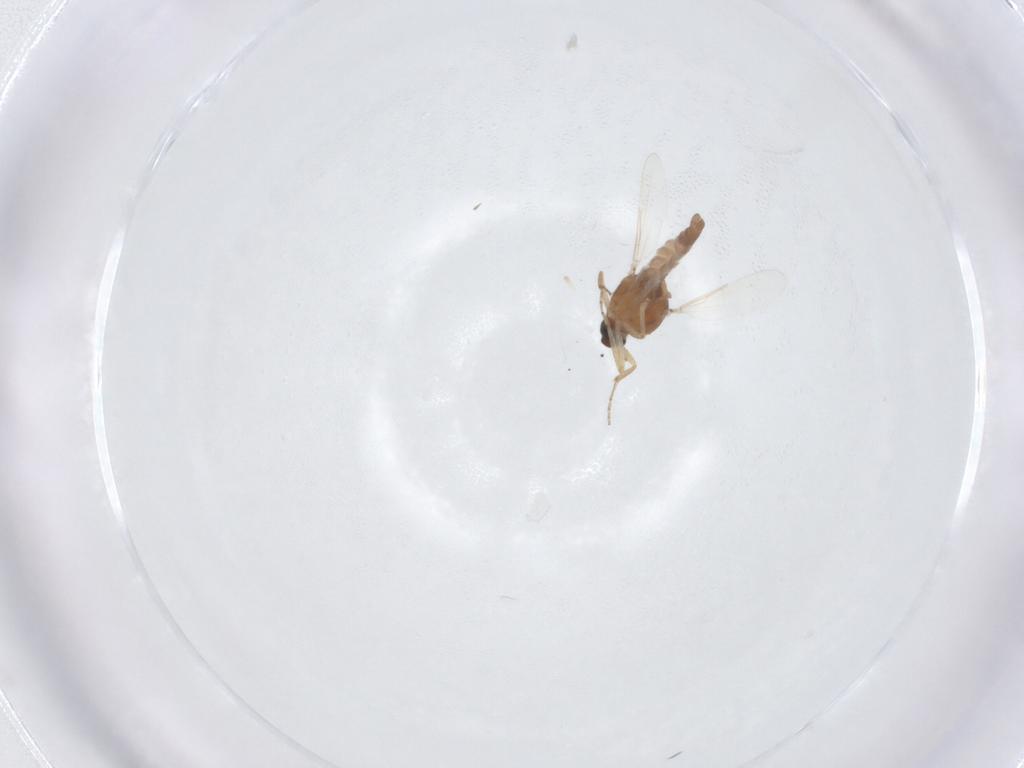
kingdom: Animalia
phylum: Arthropoda
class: Insecta
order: Diptera
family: Ceratopogonidae
